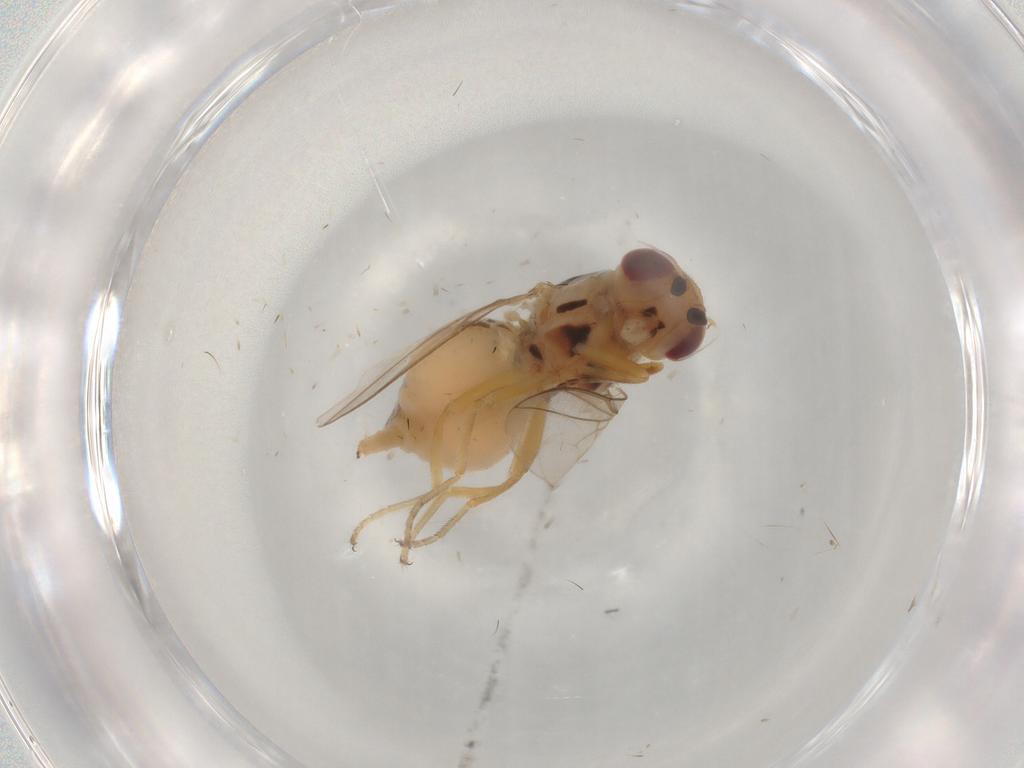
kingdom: Animalia
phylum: Arthropoda
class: Insecta
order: Diptera
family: Chloropidae
